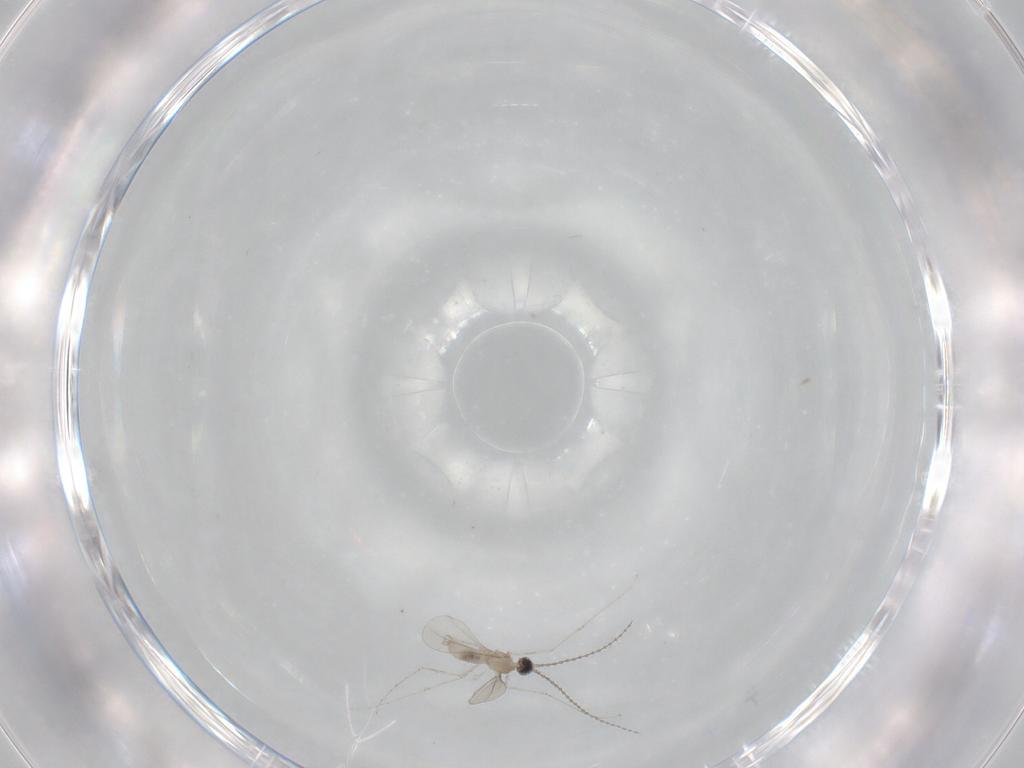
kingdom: Animalia
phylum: Arthropoda
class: Insecta
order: Diptera
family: Cecidomyiidae
